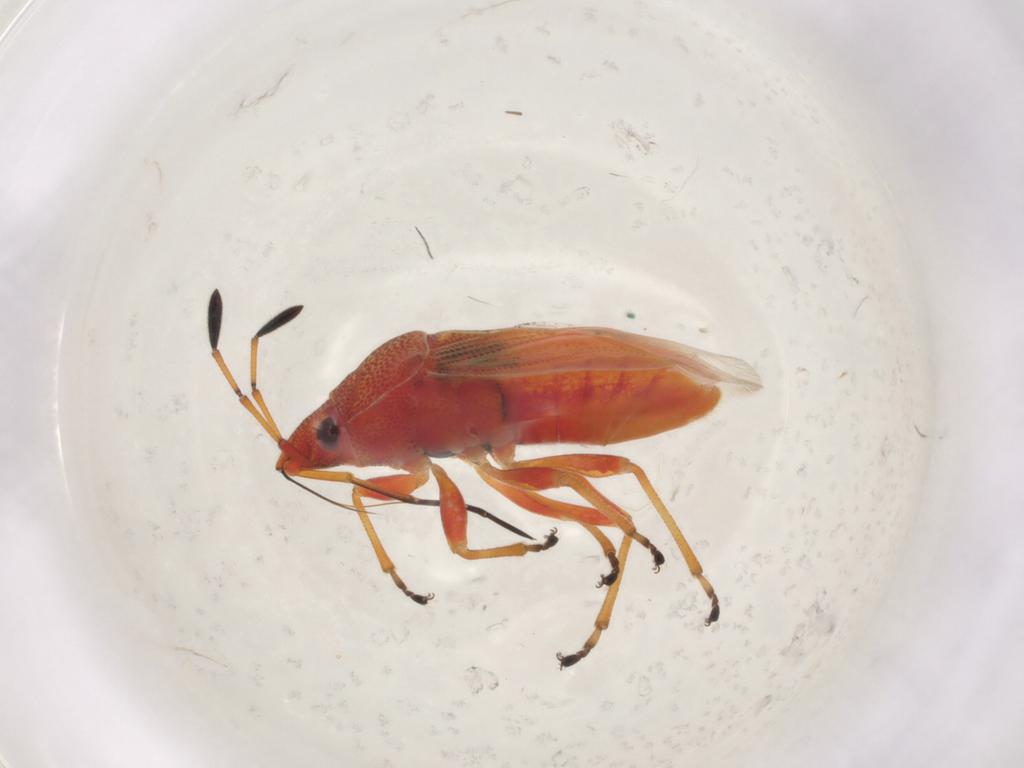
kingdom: Animalia
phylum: Arthropoda
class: Insecta
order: Hemiptera
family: Lygaeidae
